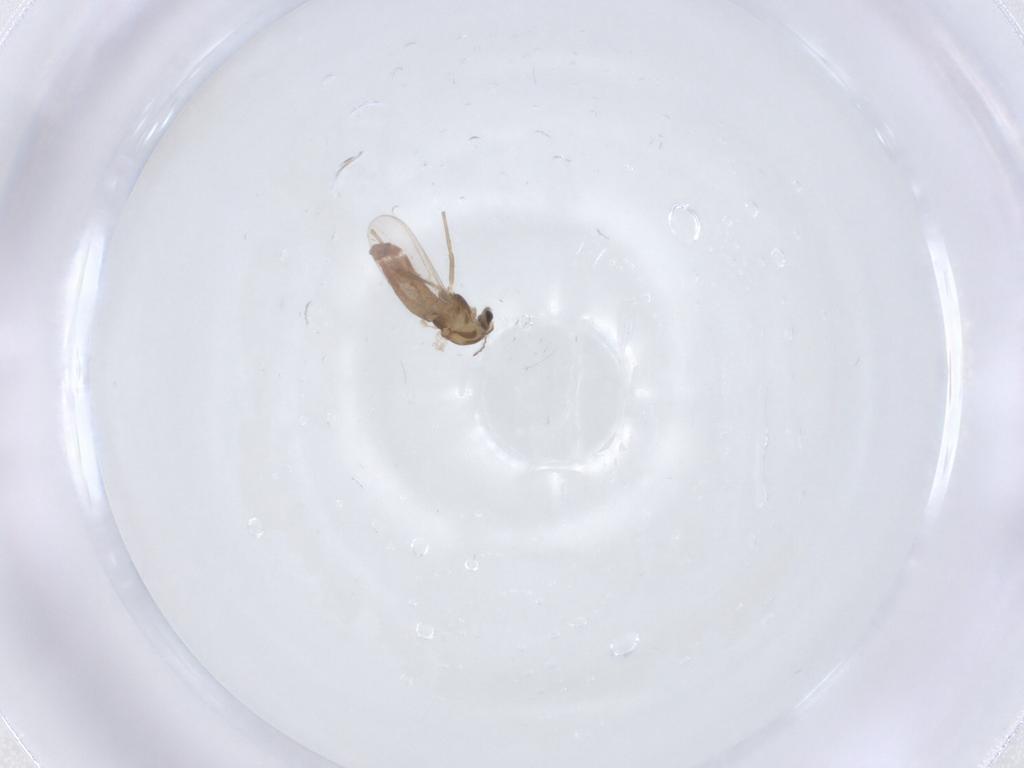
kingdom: Animalia
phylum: Arthropoda
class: Insecta
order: Diptera
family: Chironomidae
